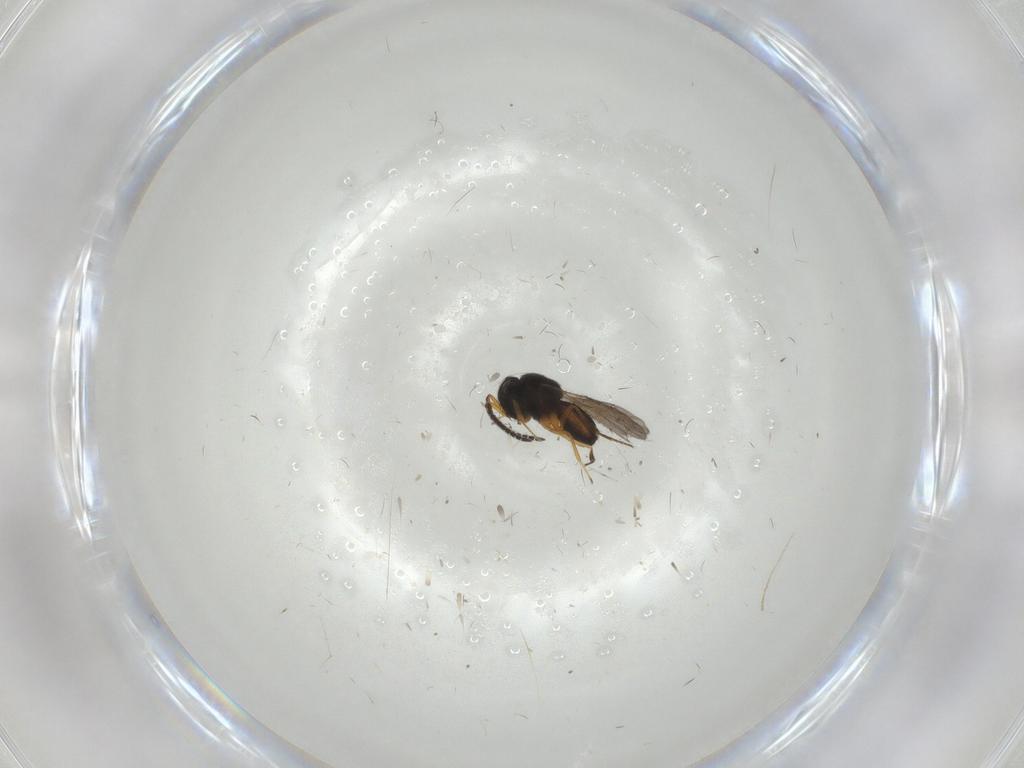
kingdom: Animalia
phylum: Arthropoda
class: Insecta
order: Hymenoptera
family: Scelionidae
